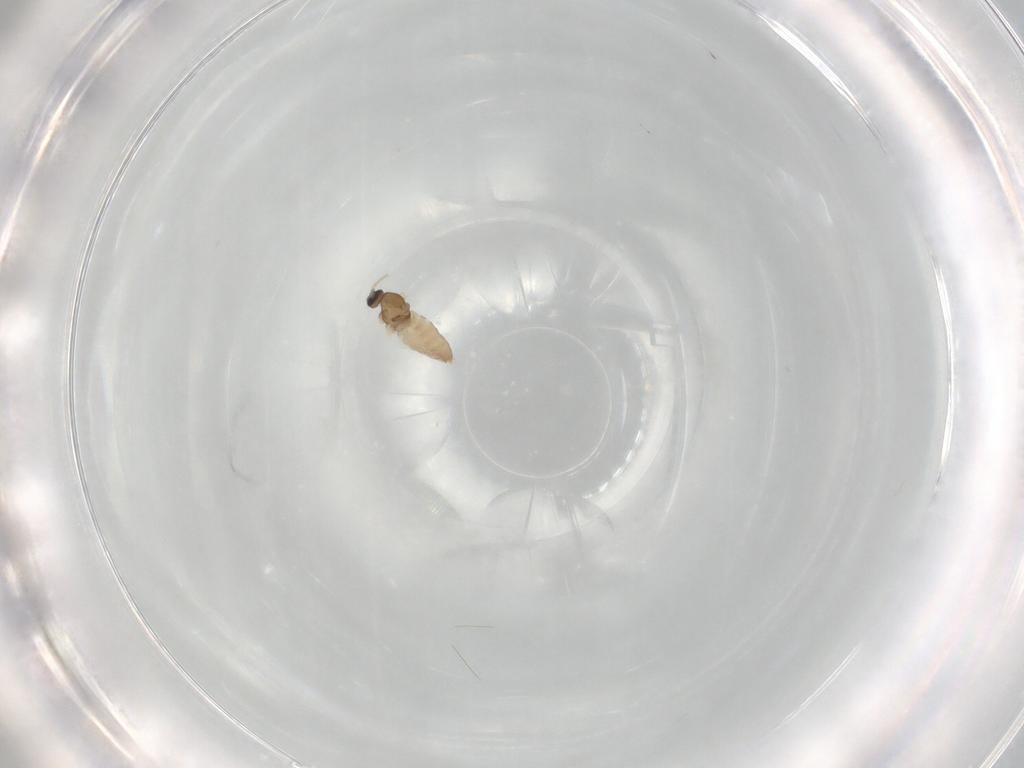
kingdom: Animalia
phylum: Arthropoda
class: Insecta
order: Diptera
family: Cecidomyiidae
